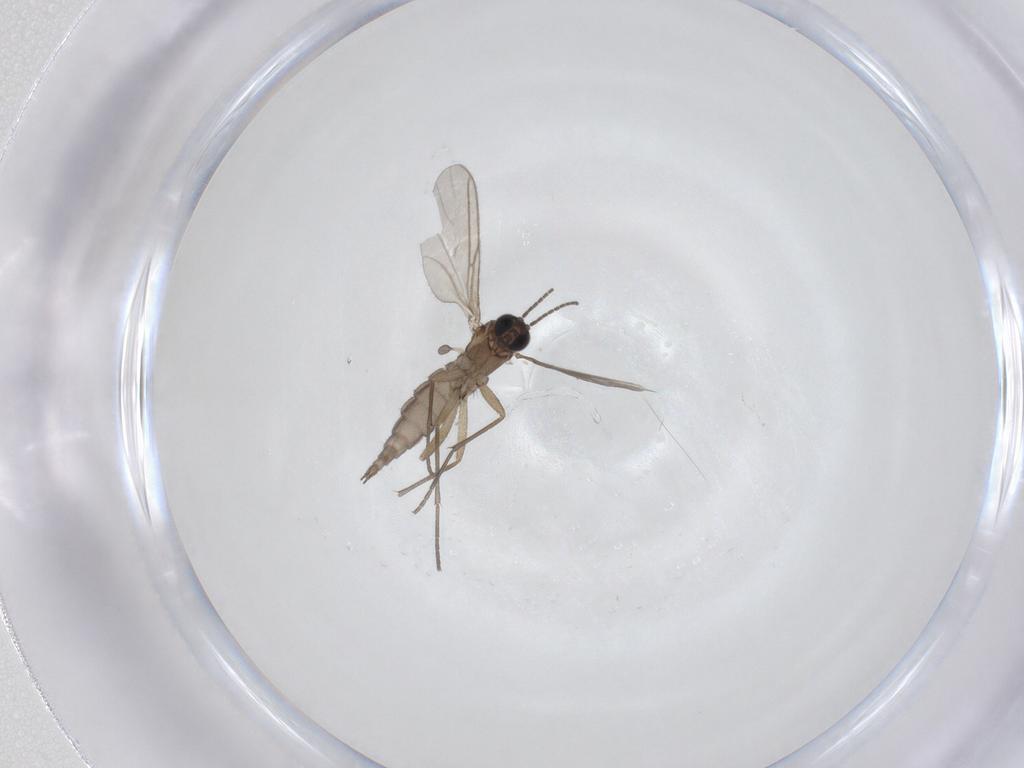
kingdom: Animalia
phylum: Arthropoda
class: Insecta
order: Diptera
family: Sciaridae
